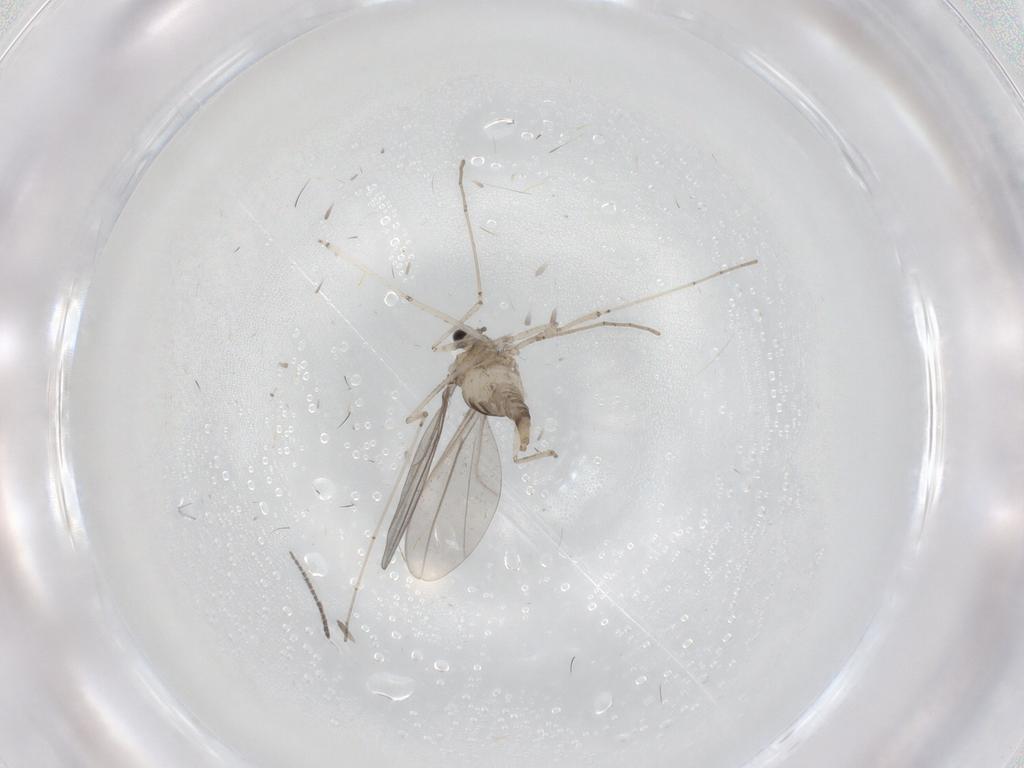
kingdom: Animalia
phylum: Arthropoda
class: Insecta
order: Diptera
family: Cecidomyiidae
